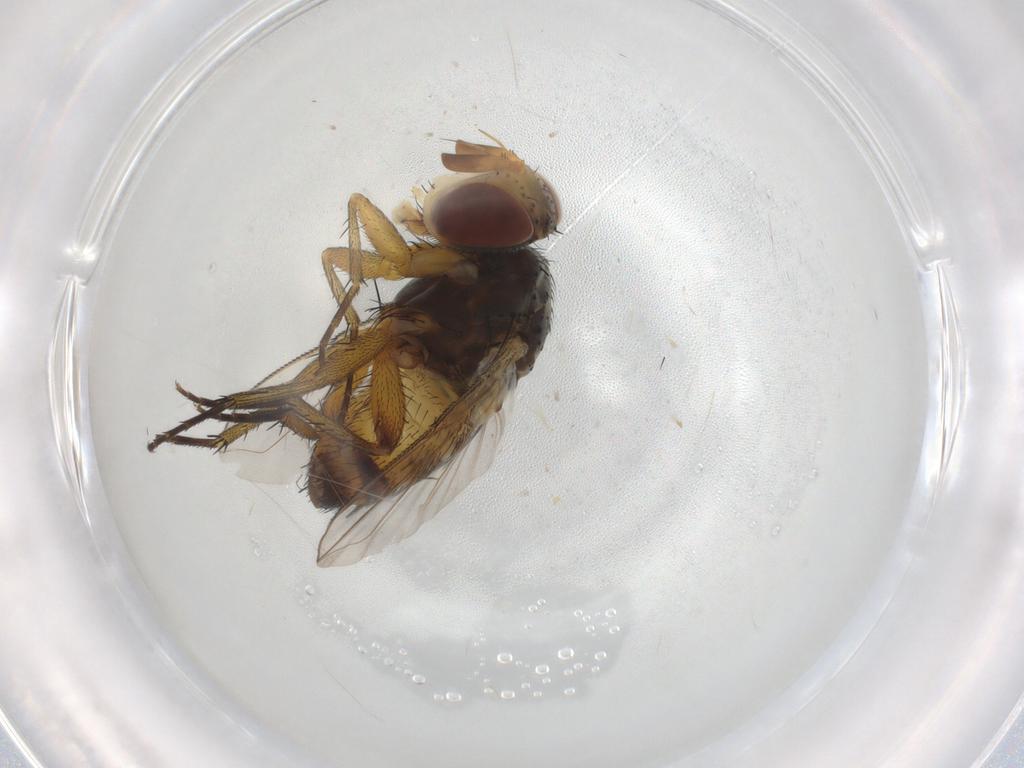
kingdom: Animalia
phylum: Arthropoda
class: Insecta
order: Diptera
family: Tachinidae
